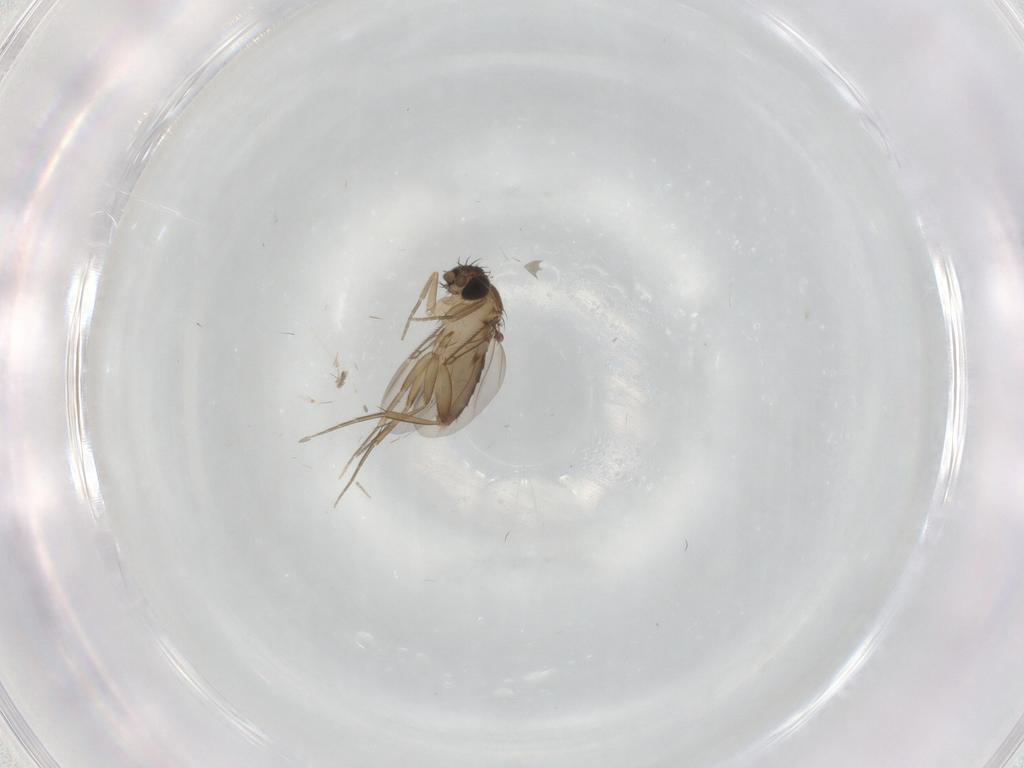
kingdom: Animalia
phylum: Arthropoda
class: Insecta
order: Diptera
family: Phoridae
